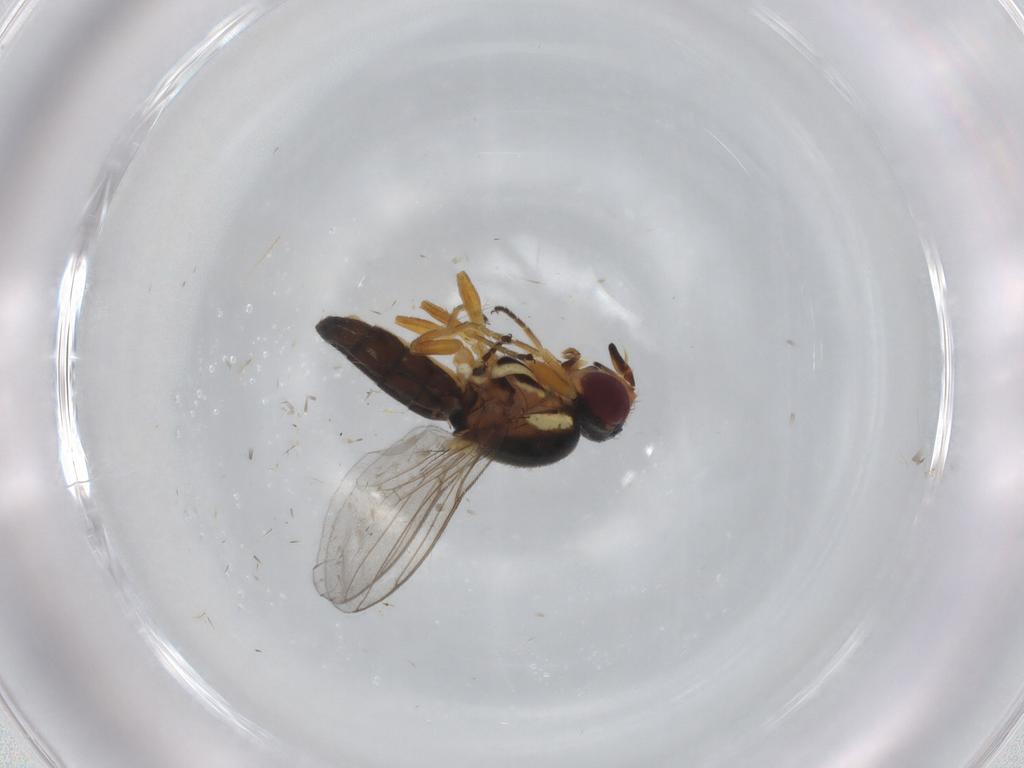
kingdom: Animalia
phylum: Arthropoda
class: Insecta
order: Diptera
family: Chloropidae
